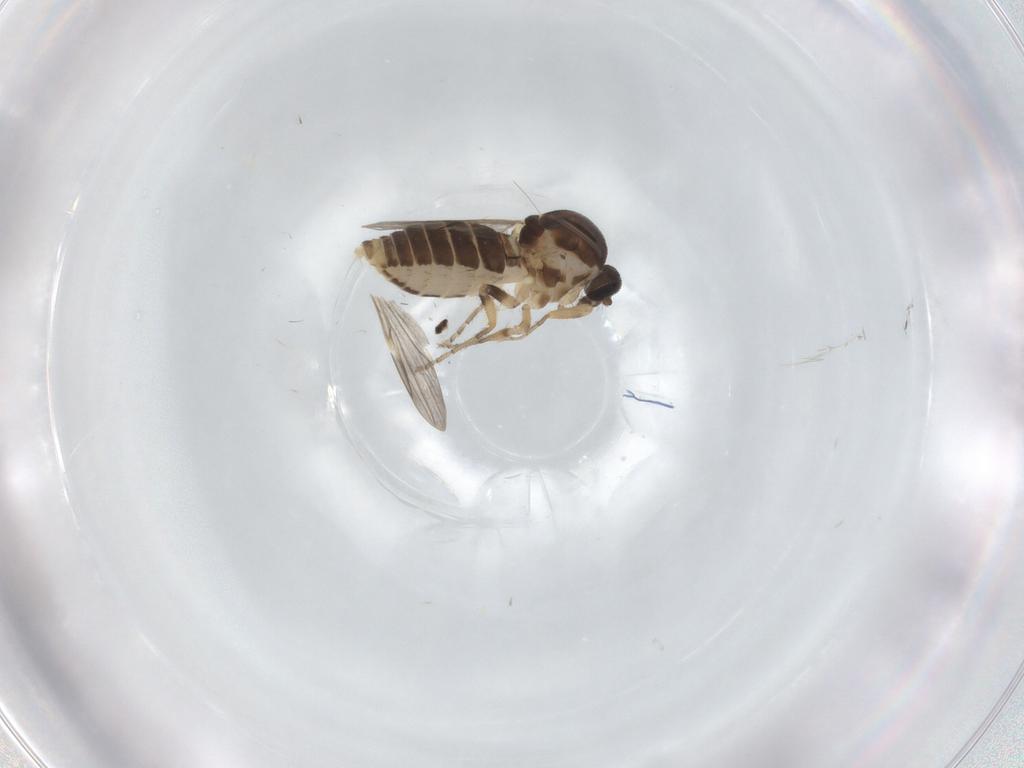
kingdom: Animalia
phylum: Arthropoda
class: Insecta
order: Diptera
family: Ceratopogonidae
